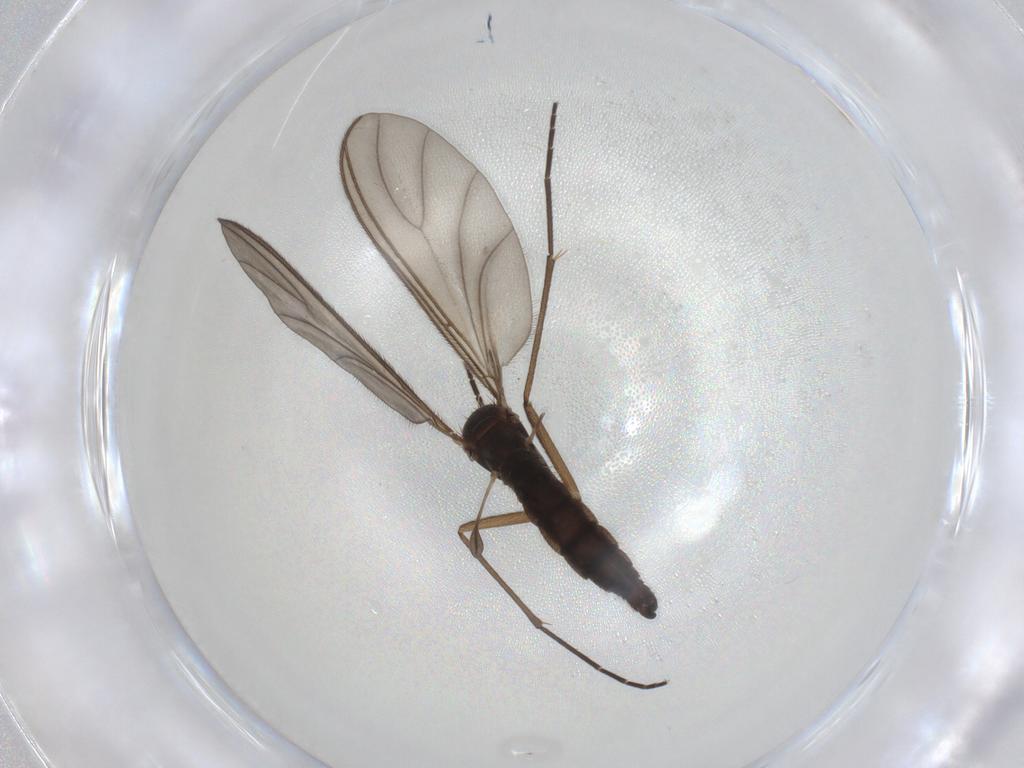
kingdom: Animalia
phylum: Arthropoda
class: Insecta
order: Diptera
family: Sciaridae
